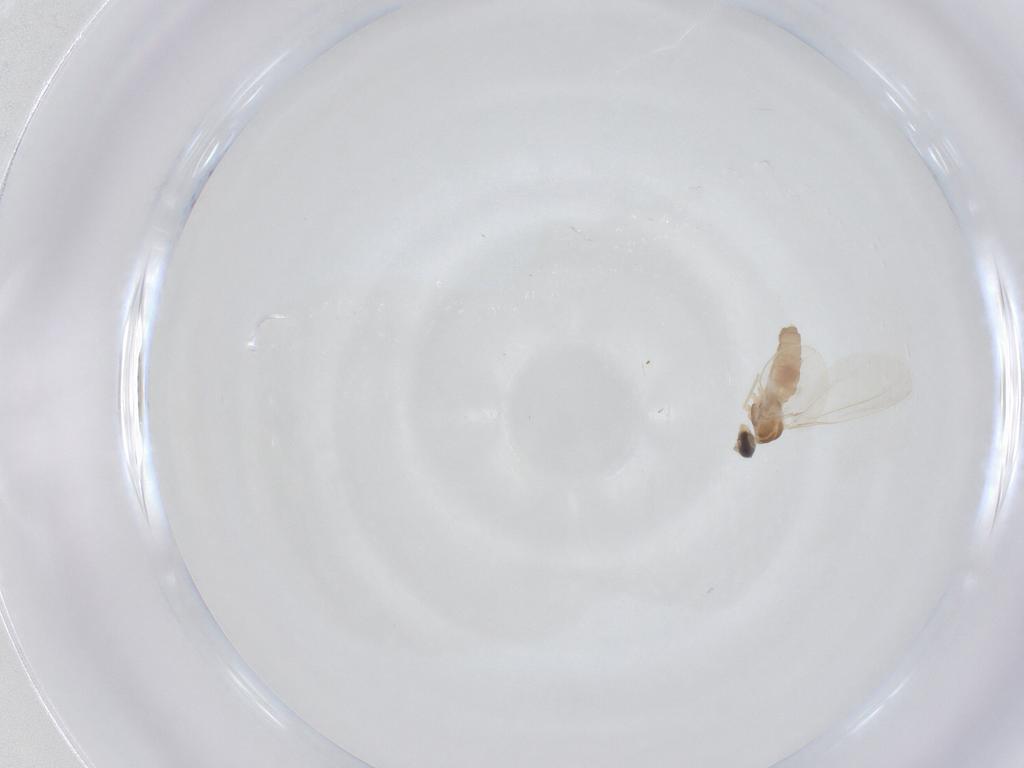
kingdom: Animalia
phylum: Arthropoda
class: Insecta
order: Diptera
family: Cecidomyiidae
